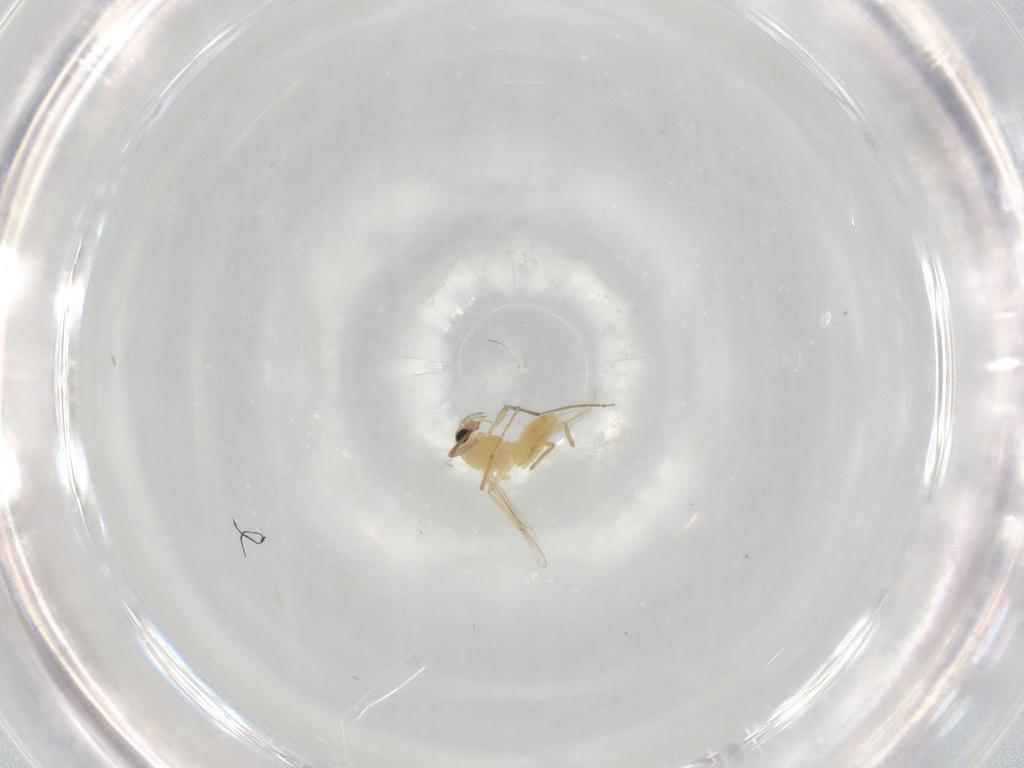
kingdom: Animalia
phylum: Arthropoda
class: Insecta
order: Diptera
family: Chironomidae
